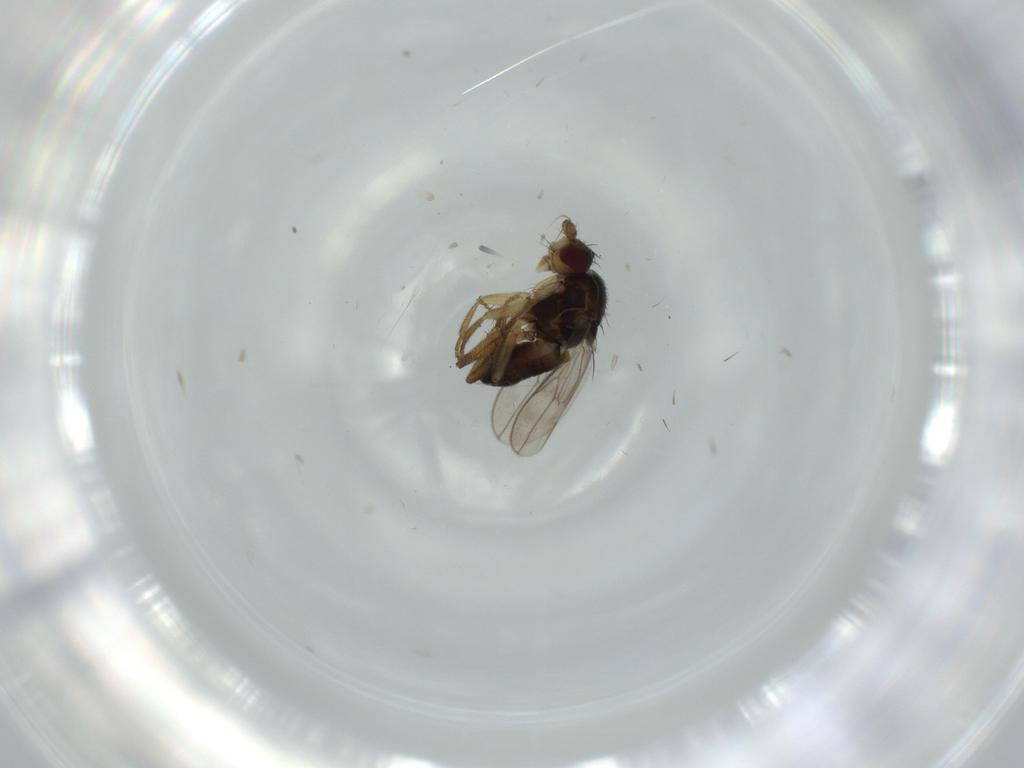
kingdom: Animalia
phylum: Arthropoda
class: Insecta
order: Diptera
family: Sphaeroceridae
